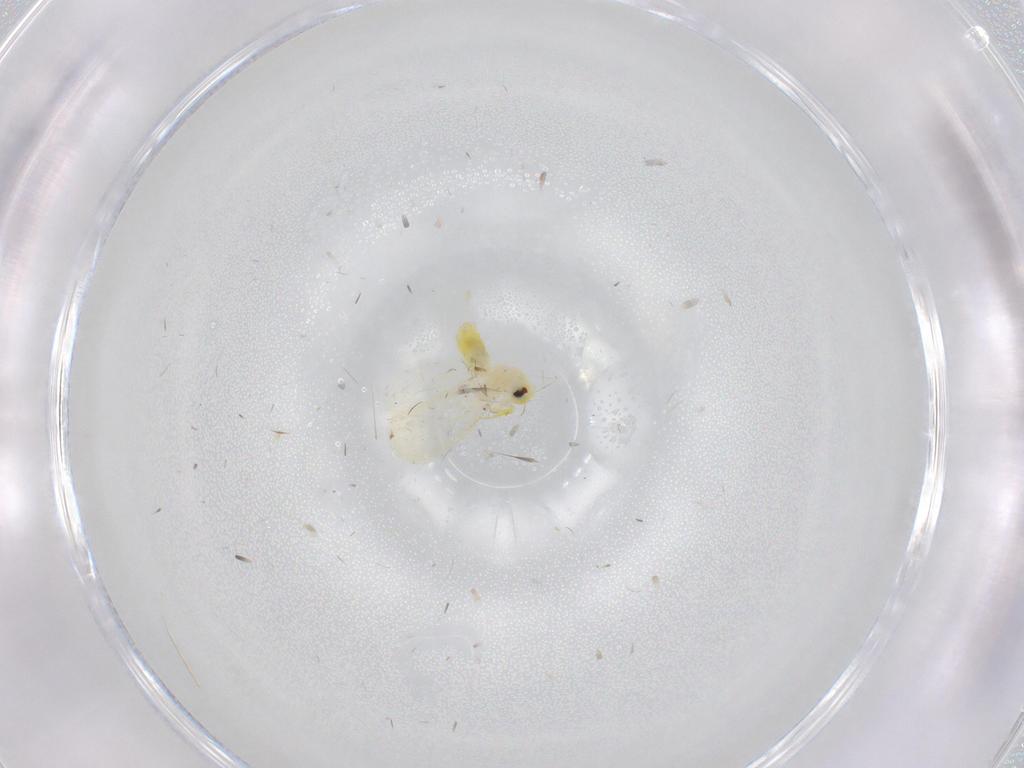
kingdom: Animalia
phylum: Arthropoda
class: Insecta
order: Hemiptera
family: Aleyrodidae
